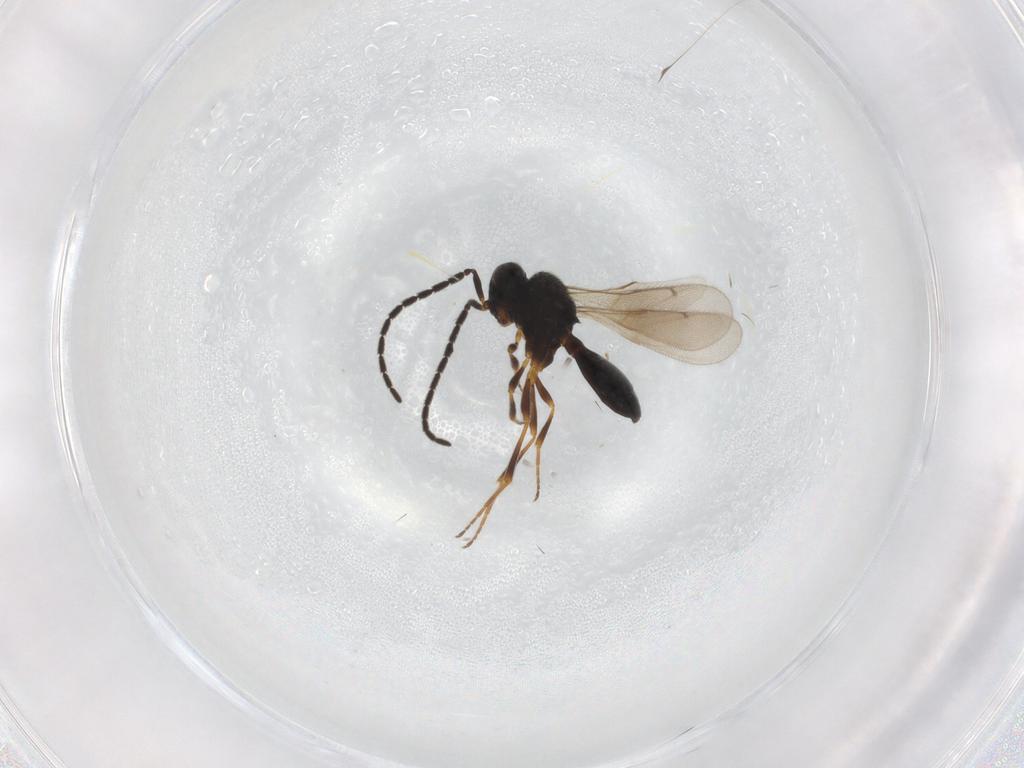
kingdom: Animalia
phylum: Arthropoda
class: Insecta
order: Hymenoptera
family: Scelionidae
